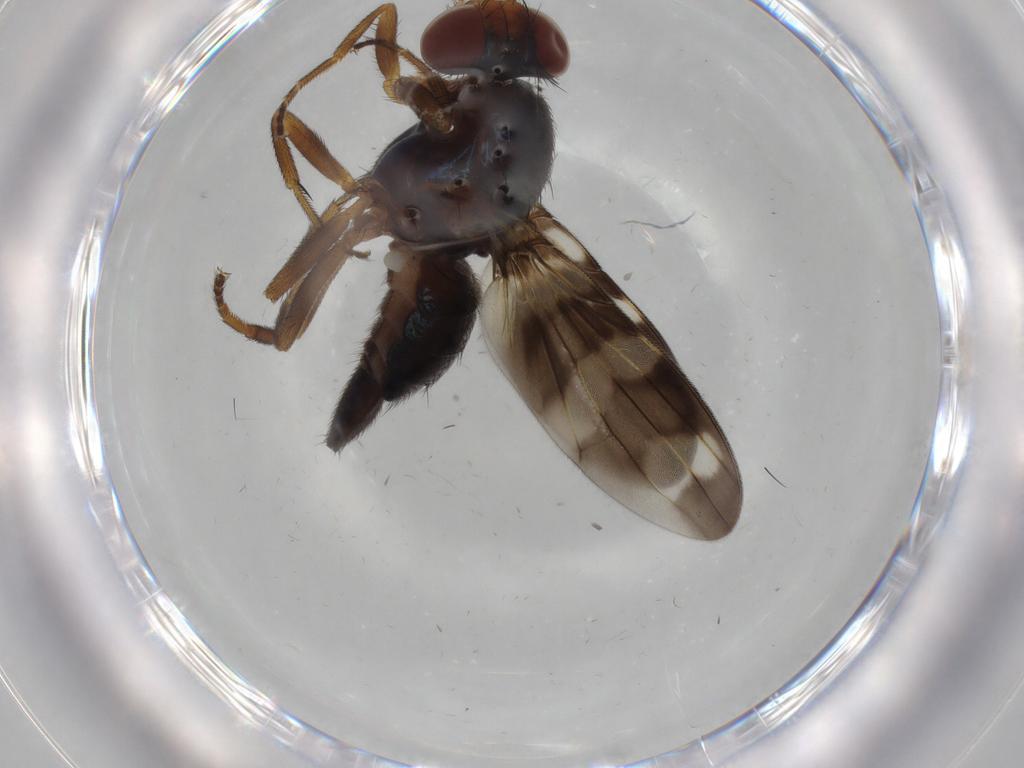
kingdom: Animalia
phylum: Arthropoda
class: Insecta
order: Diptera
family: Ulidiidae
